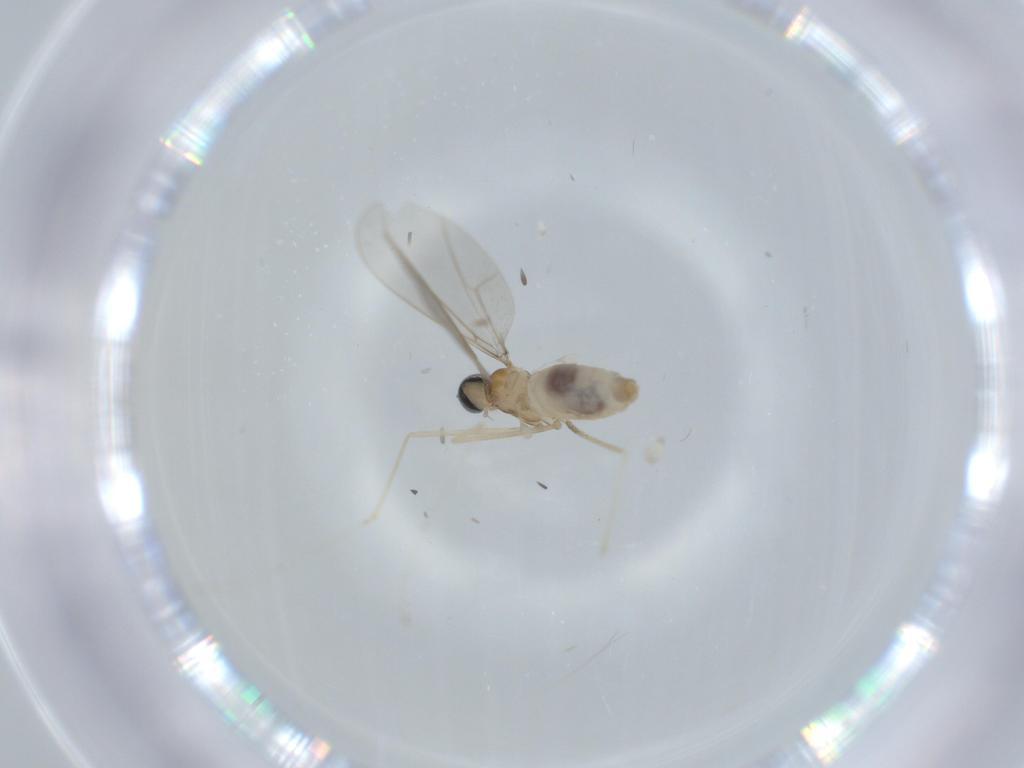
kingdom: Animalia
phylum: Arthropoda
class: Insecta
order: Diptera
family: Cecidomyiidae
